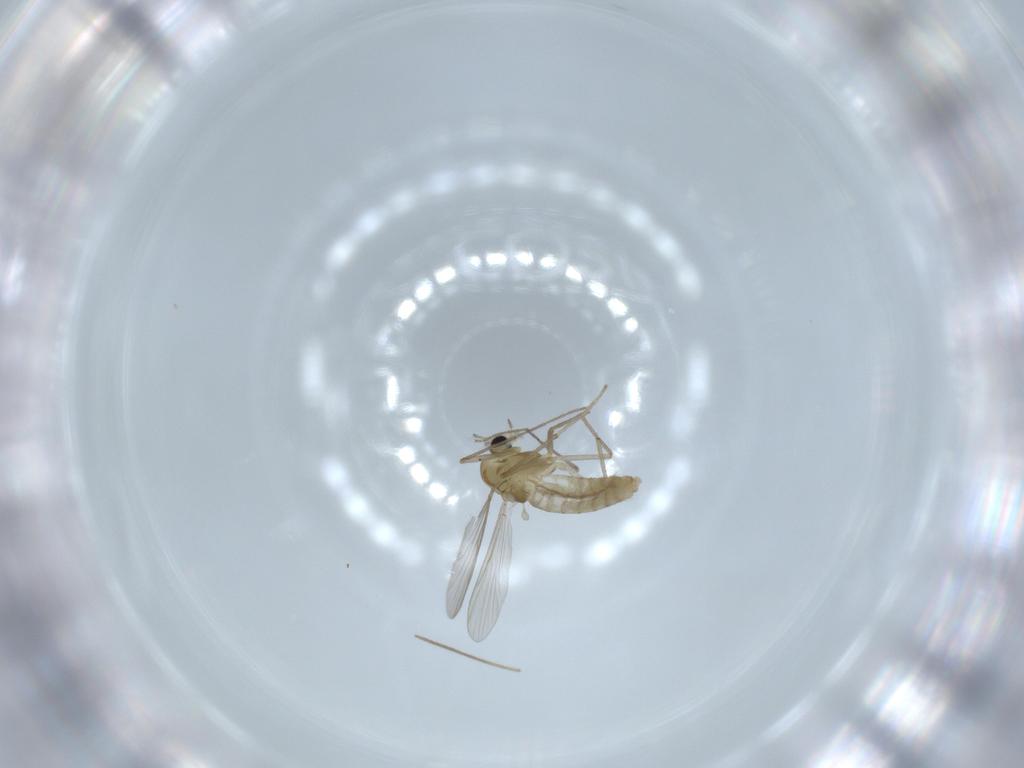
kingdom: Animalia
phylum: Arthropoda
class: Insecta
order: Diptera
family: Chironomidae
